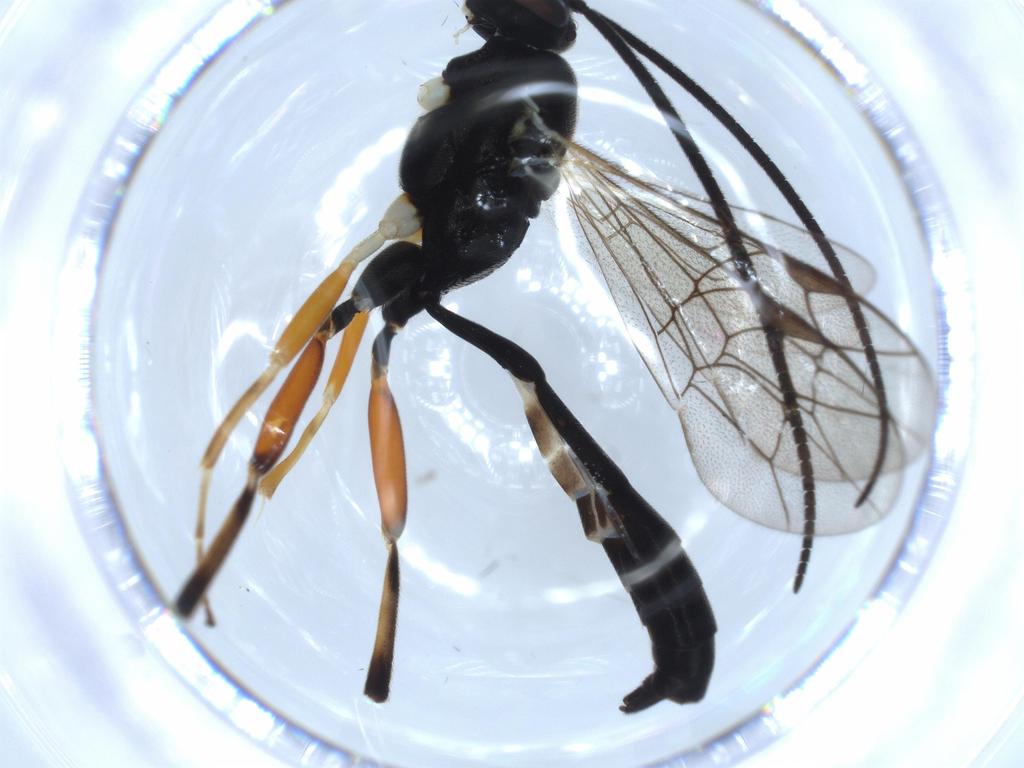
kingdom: Animalia
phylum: Arthropoda
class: Insecta
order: Hymenoptera
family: Ichneumonidae
